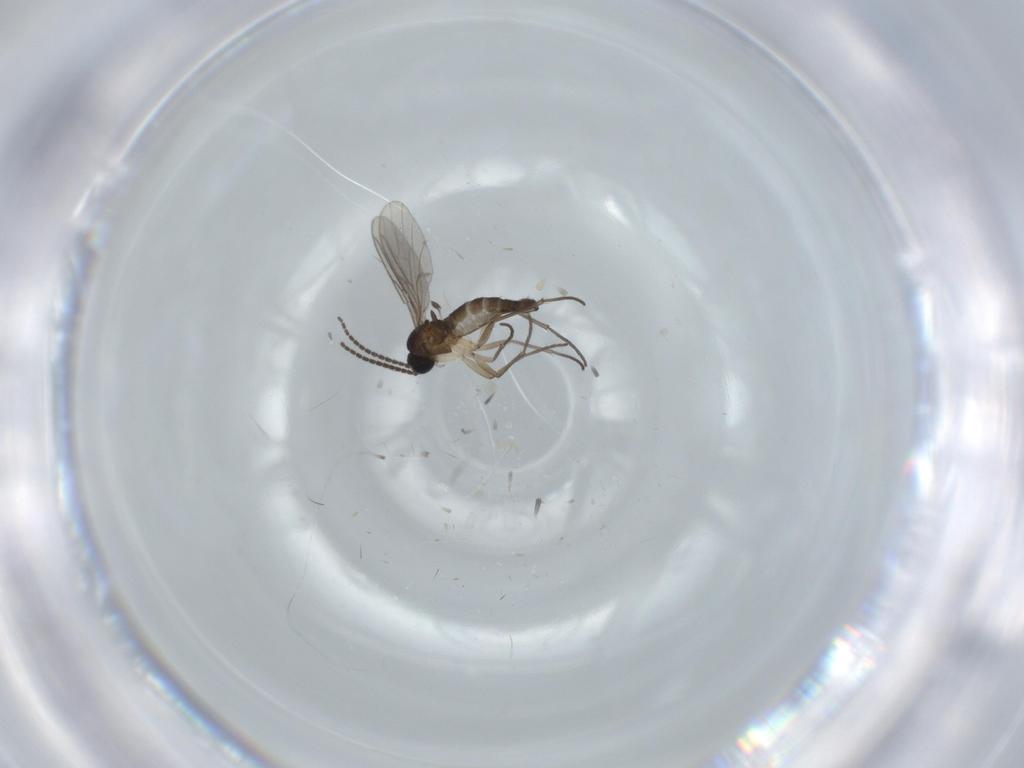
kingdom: Animalia
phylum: Arthropoda
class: Insecta
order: Diptera
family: Sciaridae
